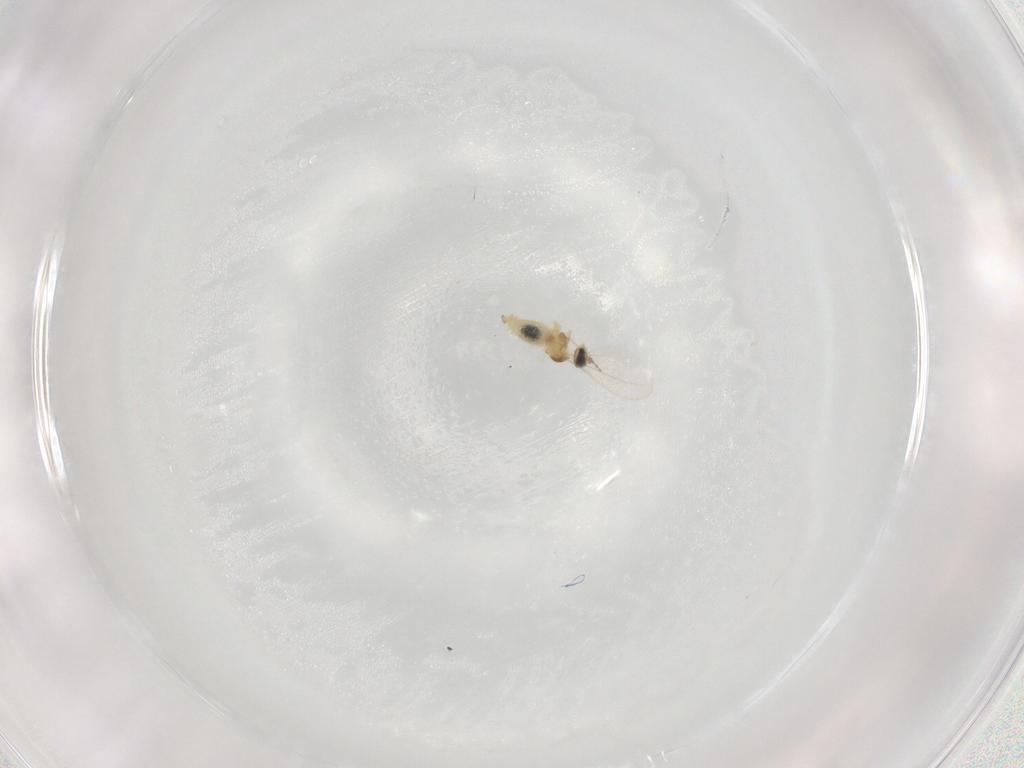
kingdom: Animalia
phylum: Arthropoda
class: Insecta
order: Diptera
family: Cecidomyiidae
